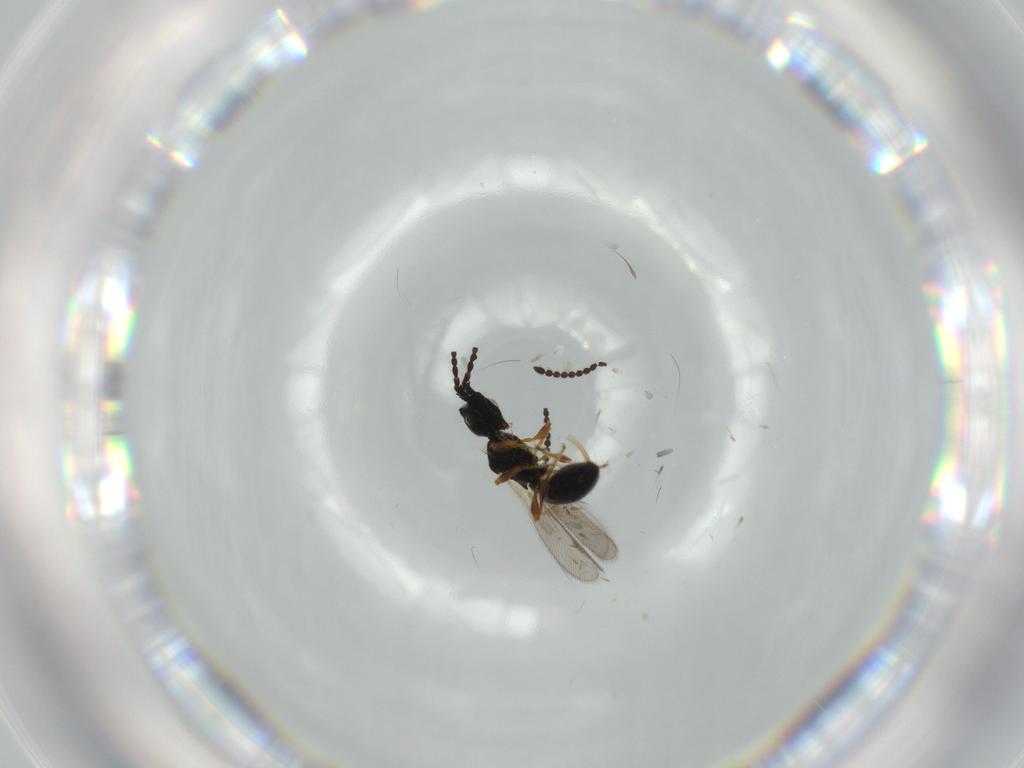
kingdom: Animalia
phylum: Arthropoda
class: Insecta
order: Hymenoptera
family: Bethylidae
